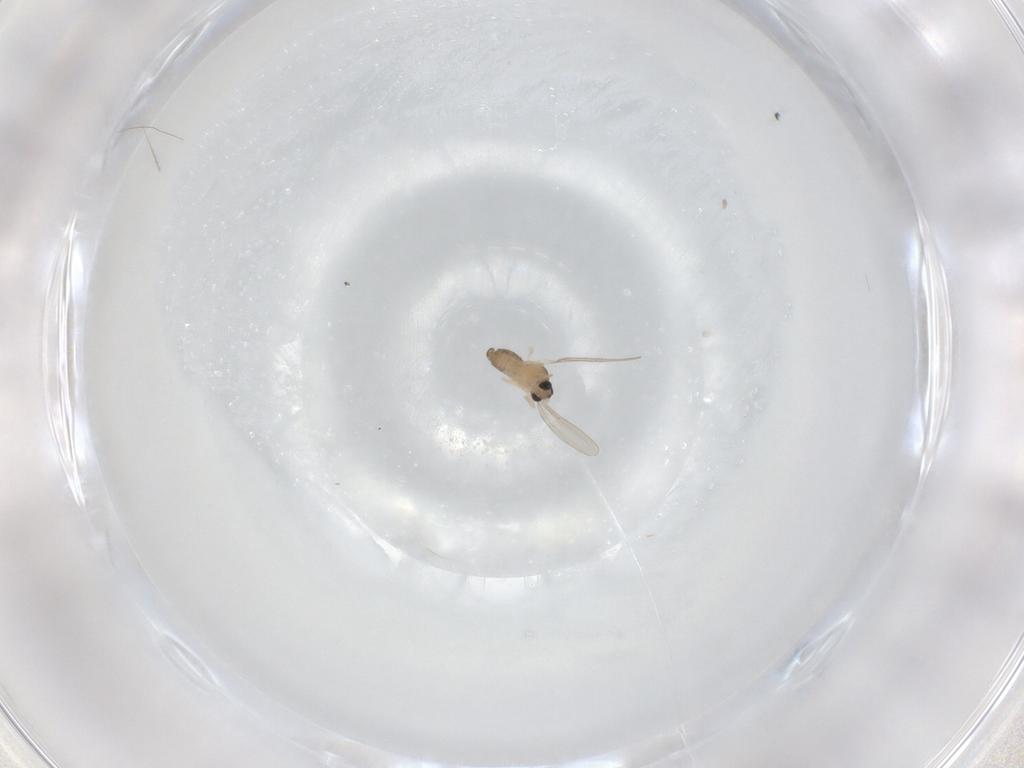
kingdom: Animalia
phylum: Arthropoda
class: Insecta
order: Diptera
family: Cecidomyiidae
